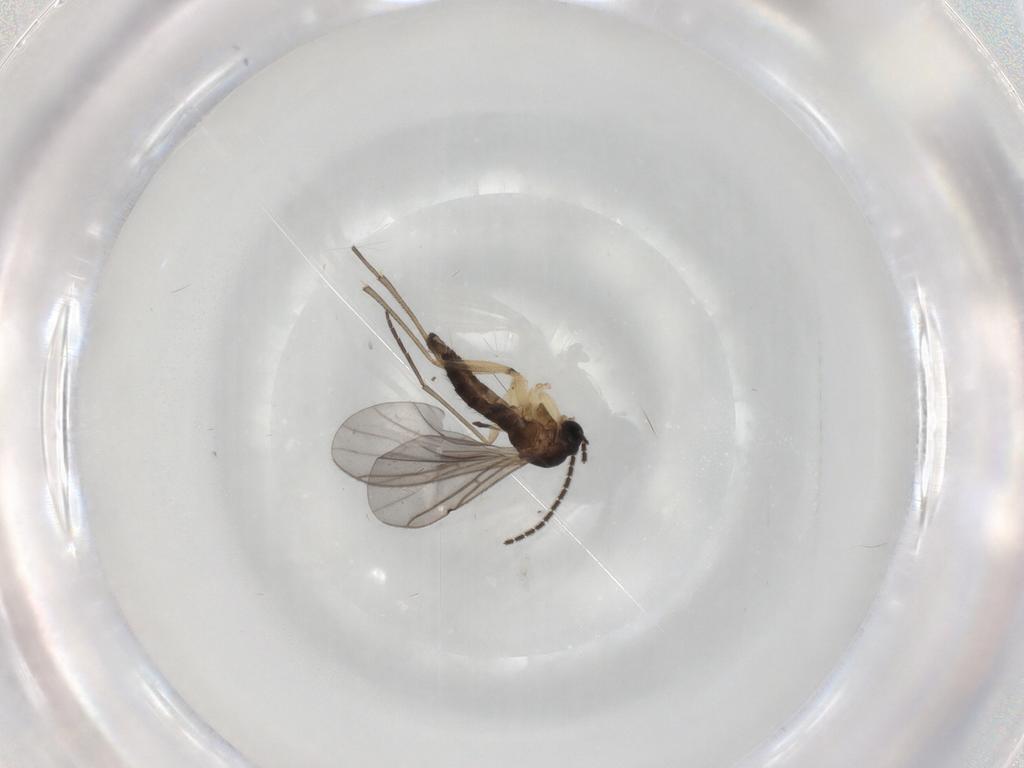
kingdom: Animalia
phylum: Arthropoda
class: Insecta
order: Diptera
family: Sciaridae
